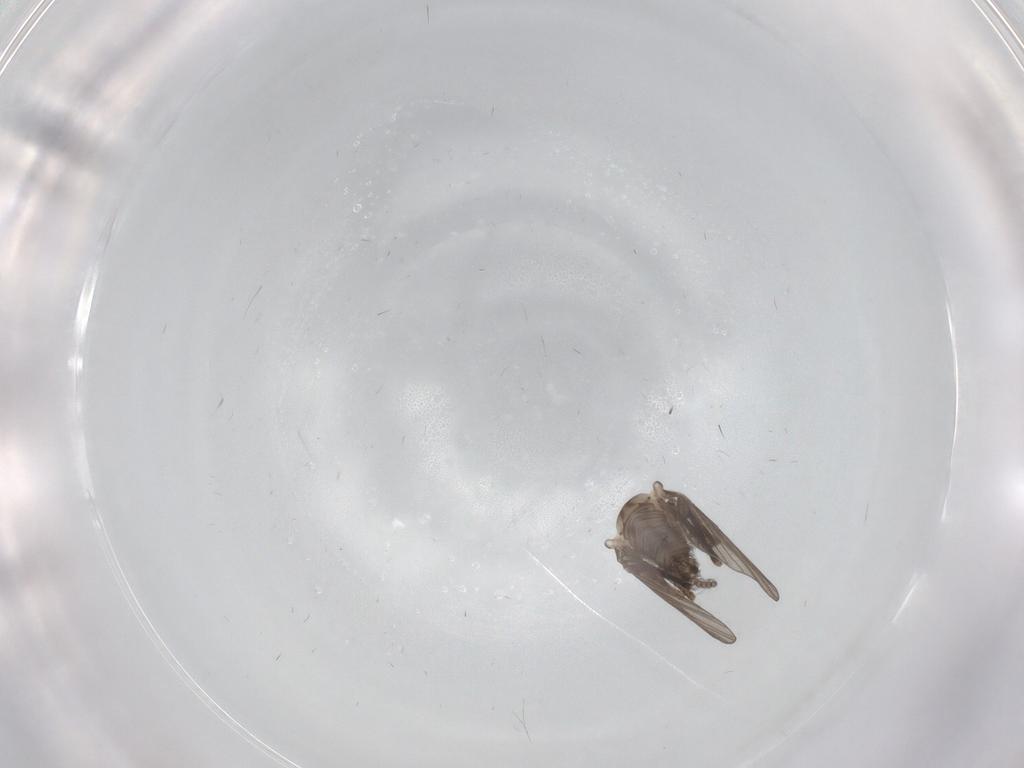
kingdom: Animalia
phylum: Arthropoda
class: Insecta
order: Diptera
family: Psychodidae
